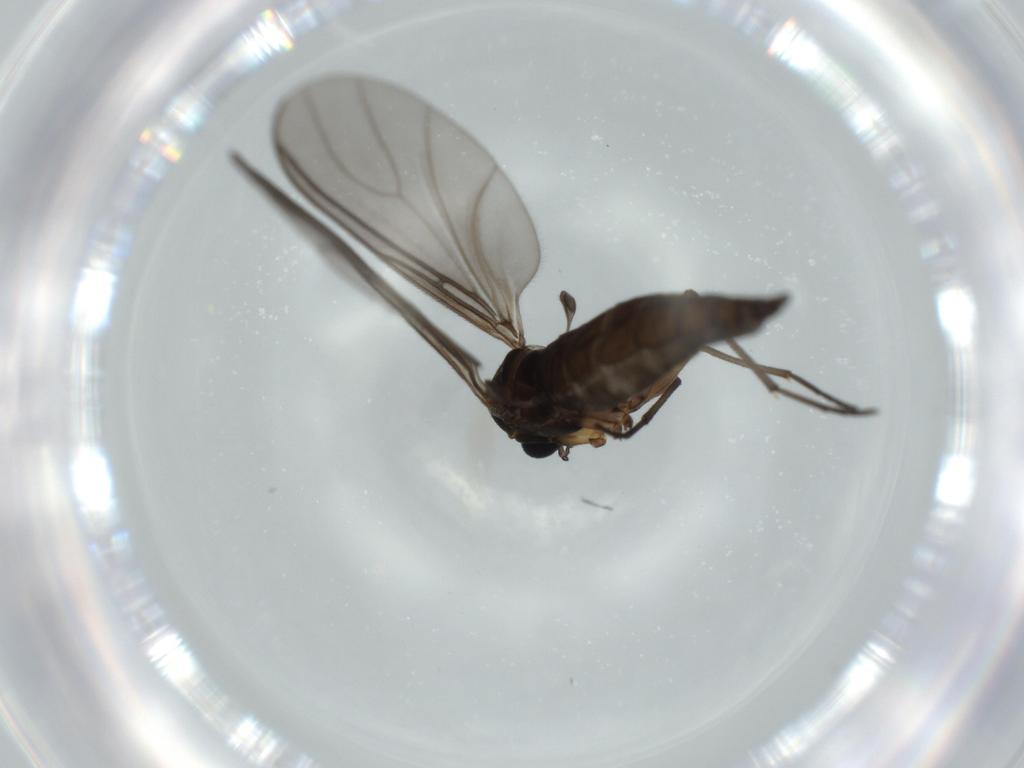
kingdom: Animalia
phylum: Arthropoda
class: Insecta
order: Diptera
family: Sciaridae
